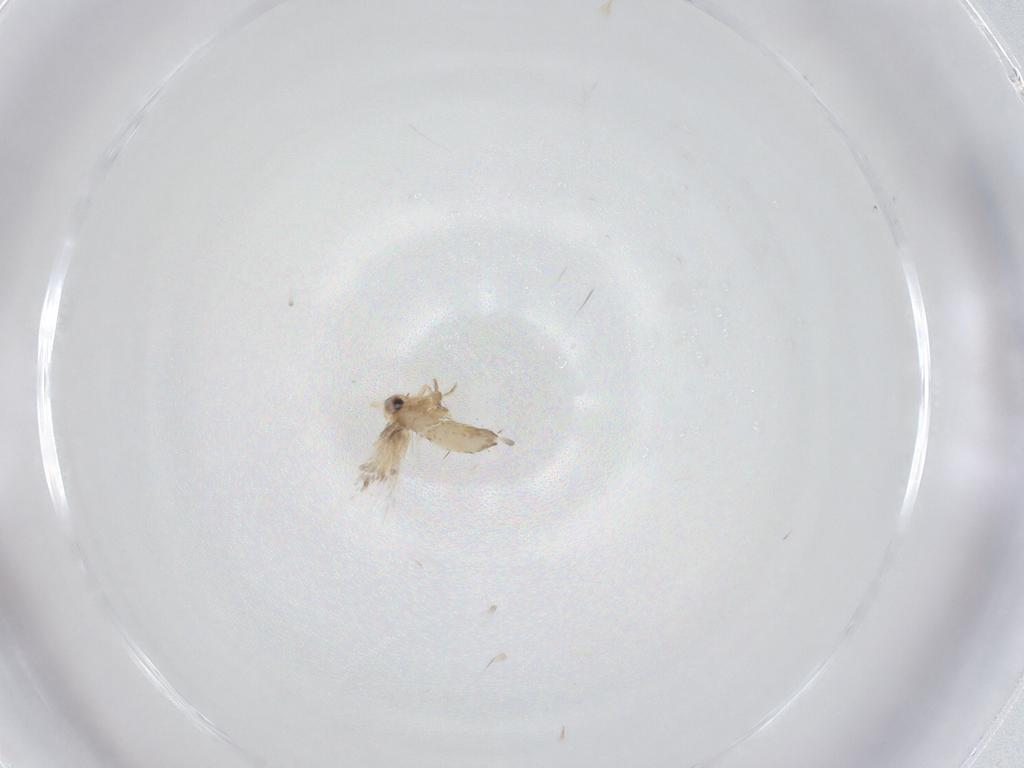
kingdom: Animalia
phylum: Arthropoda
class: Insecta
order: Lepidoptera
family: Nepticulidae
